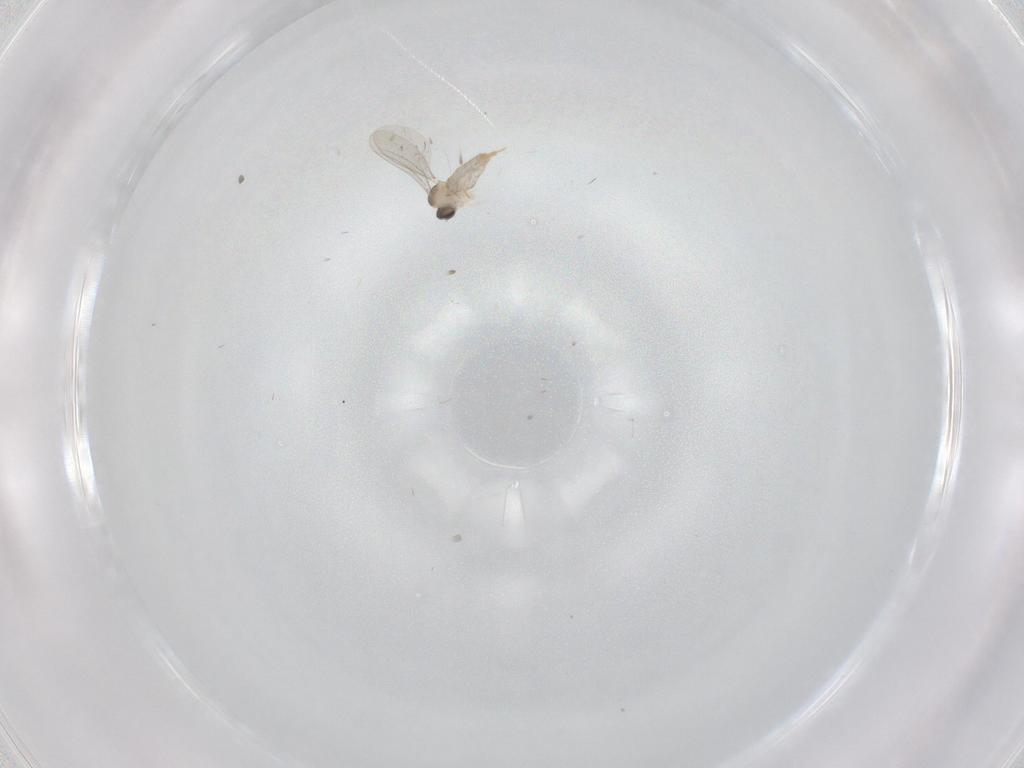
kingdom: Animalia
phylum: Arthropoda
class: Insecta
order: Diptera
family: Cecidomyiidae
